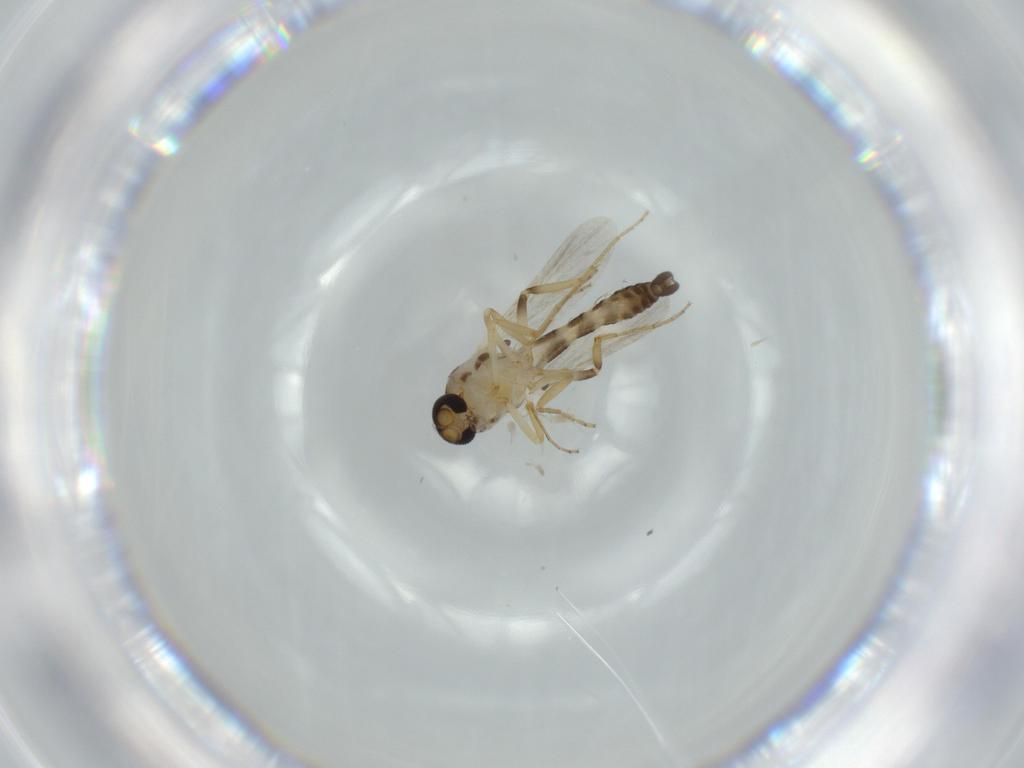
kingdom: Animalia
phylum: Arthropoda
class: Insecta
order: Diptera
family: Ceratopogonidae
